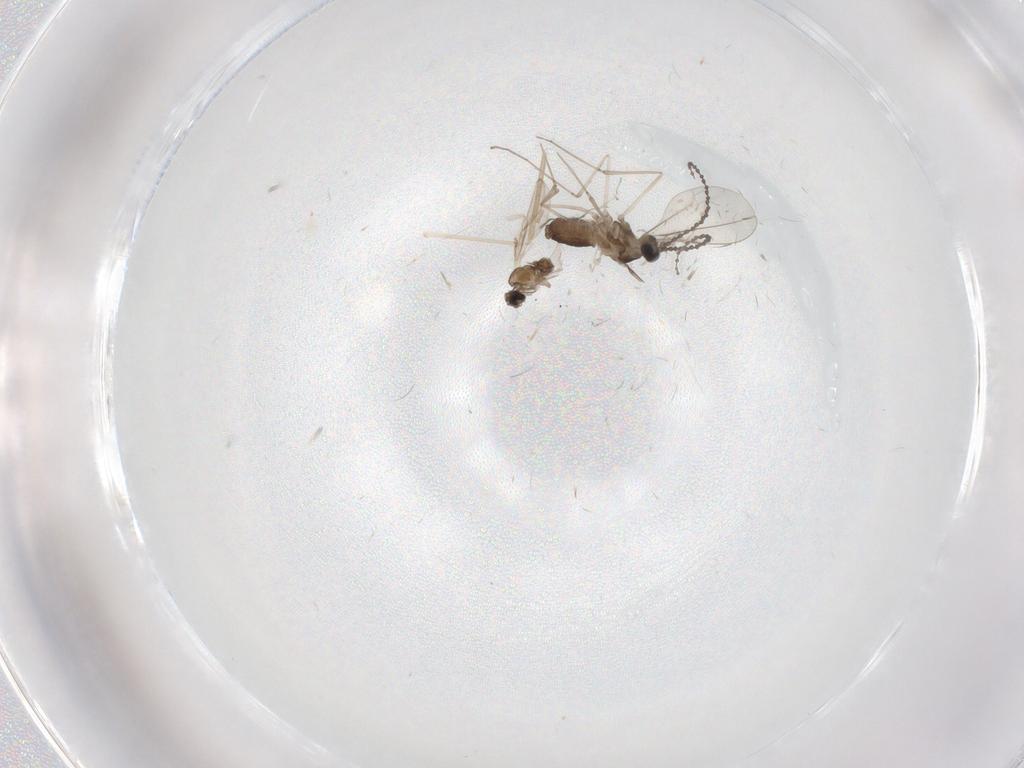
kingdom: Animalia
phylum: Arthropoda
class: Insecta
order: Diptera
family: Cecidomyiidae
